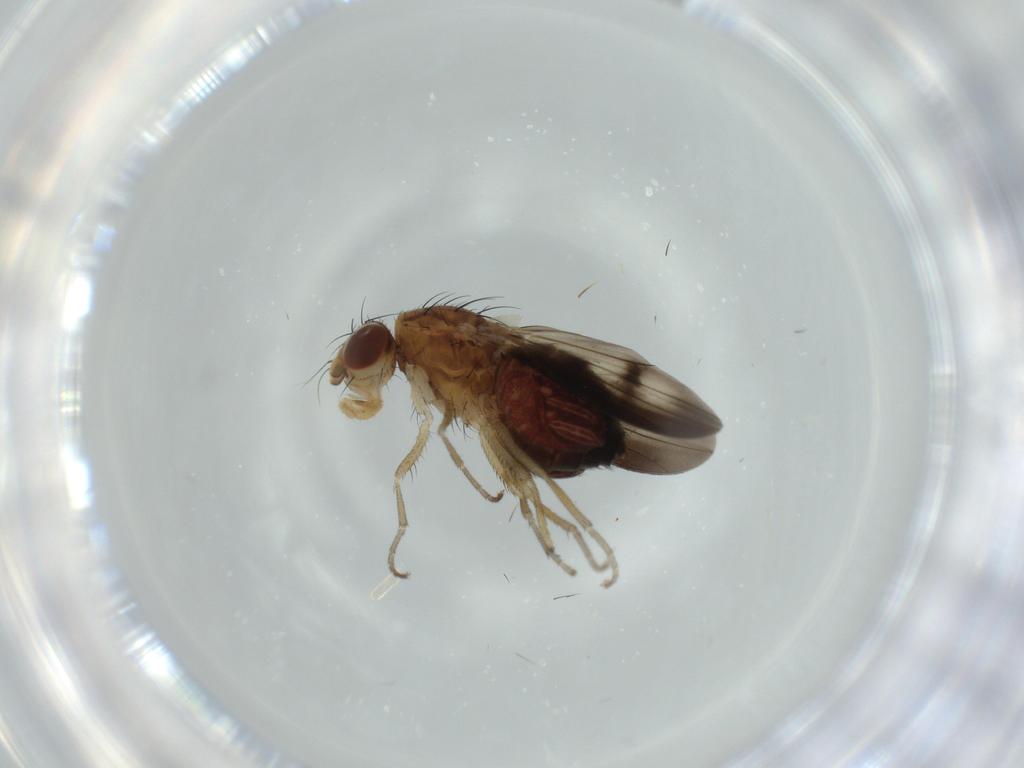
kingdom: Animalia
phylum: Arthropoda
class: Insecta
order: Diptera
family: Heleomyzidae
